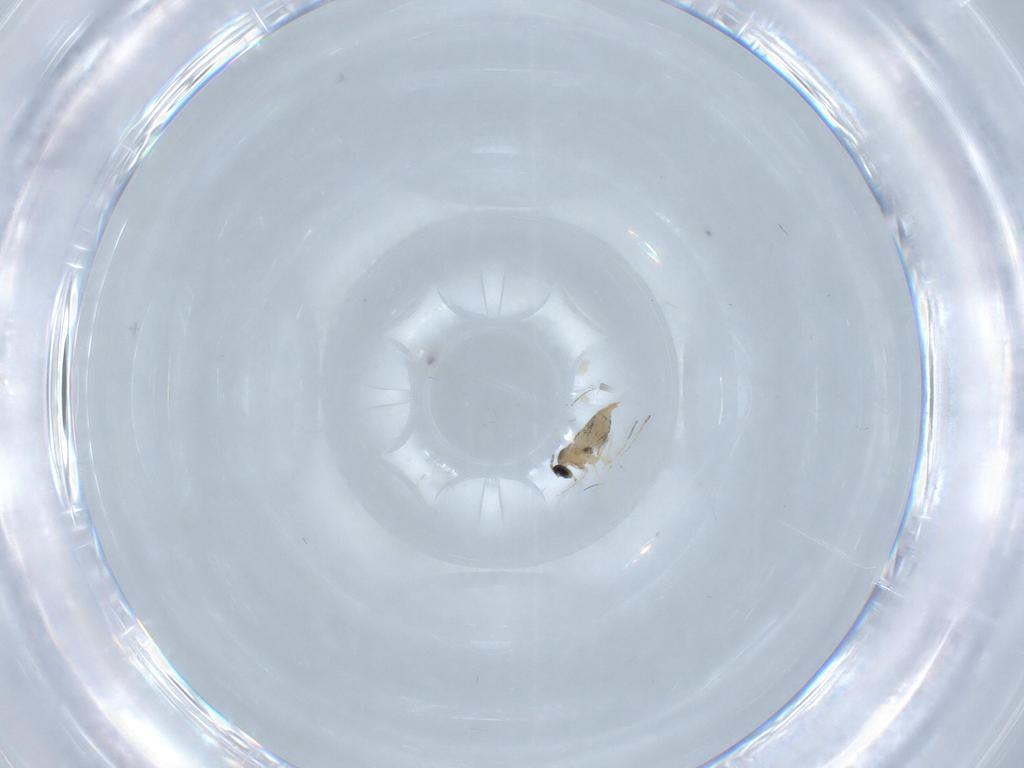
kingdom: Animalia
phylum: Arthropoda
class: Insecta
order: Diptera
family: Cecidomyiidae
